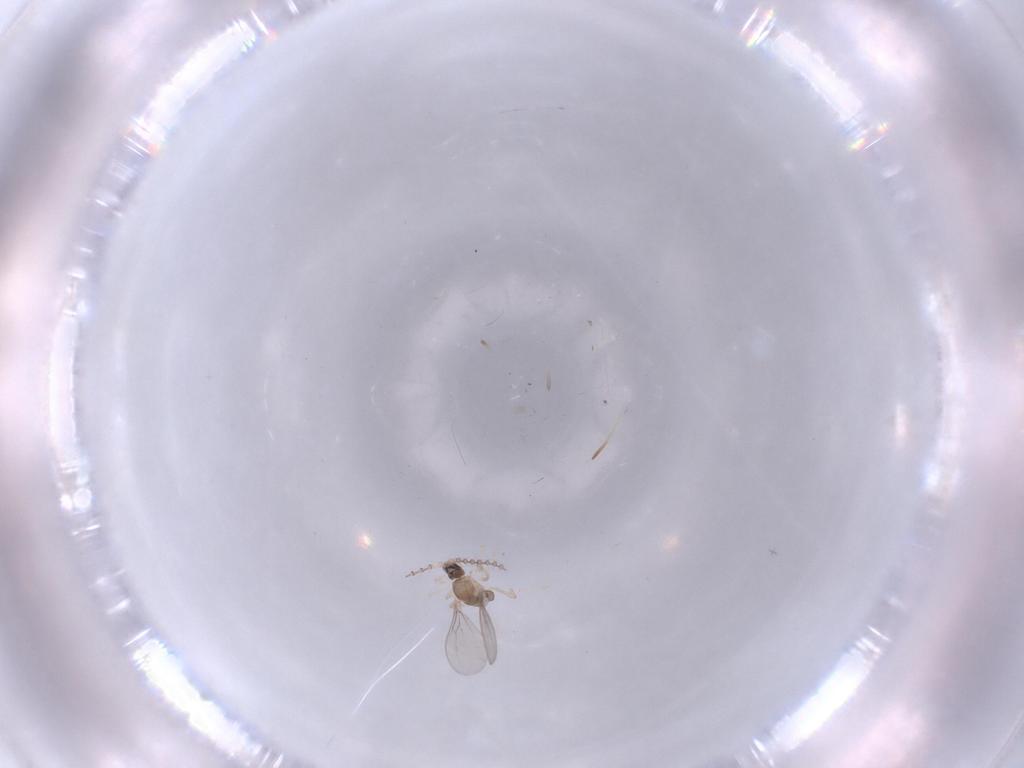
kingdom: Animalia
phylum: Arthropoda
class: Insecta
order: Diptera
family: Cecidomyiidae
